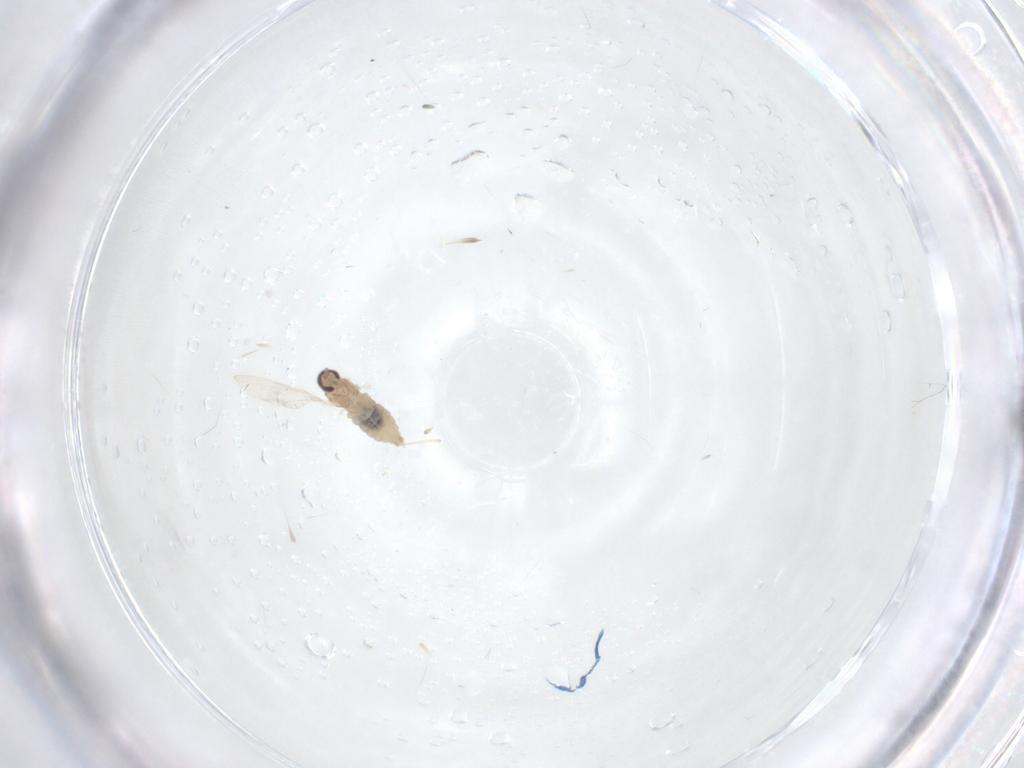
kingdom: Animalia
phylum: Arthropoda
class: Insecta
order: Diptera
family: Cecidomyiidae
